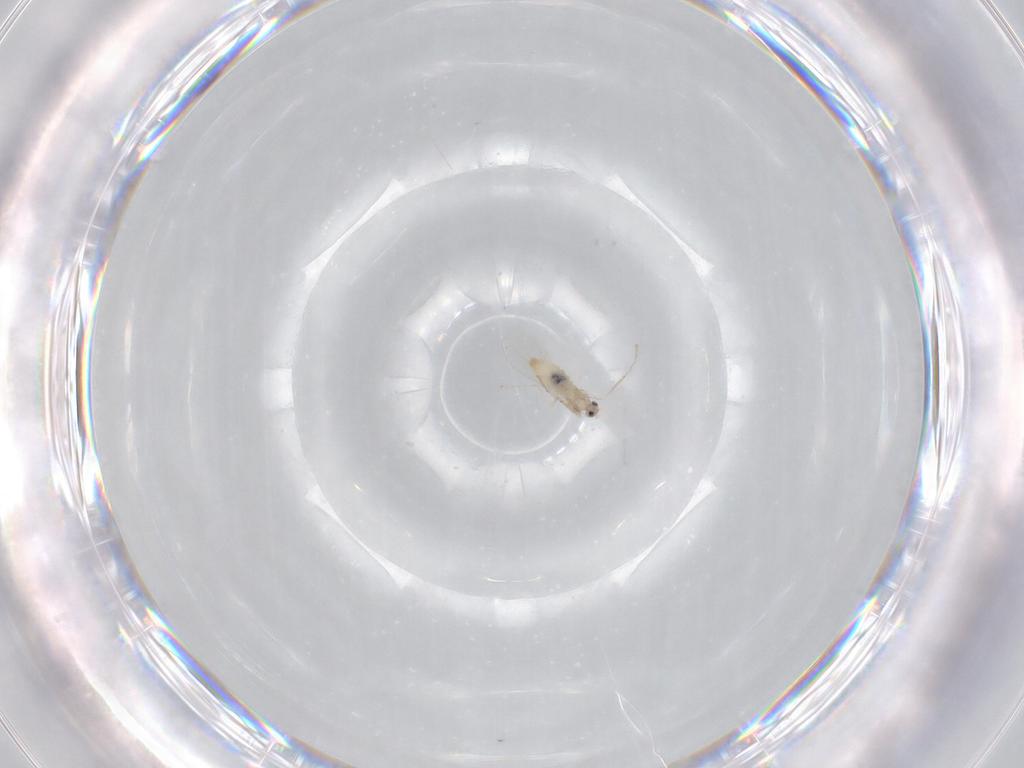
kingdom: Animalia
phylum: Arthropoda
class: Insecta
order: Diptera
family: Cecidomyiidae
